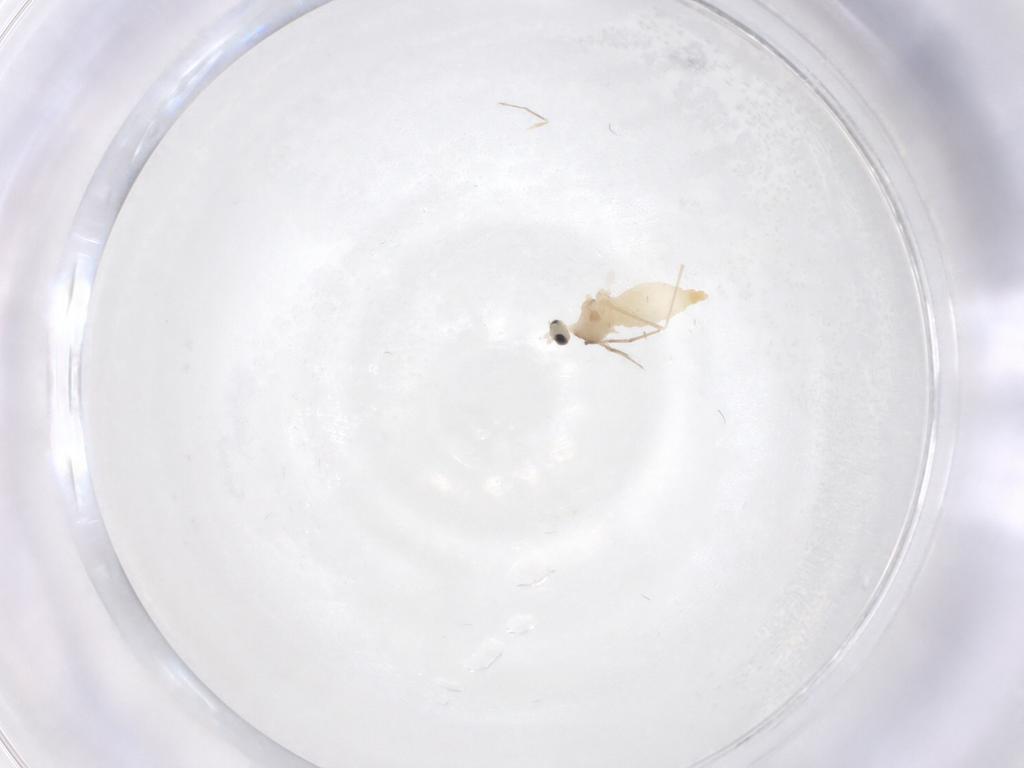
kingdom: Animalia
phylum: Arthropoda
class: Insecta
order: Diptera
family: Cecidomyiidae
